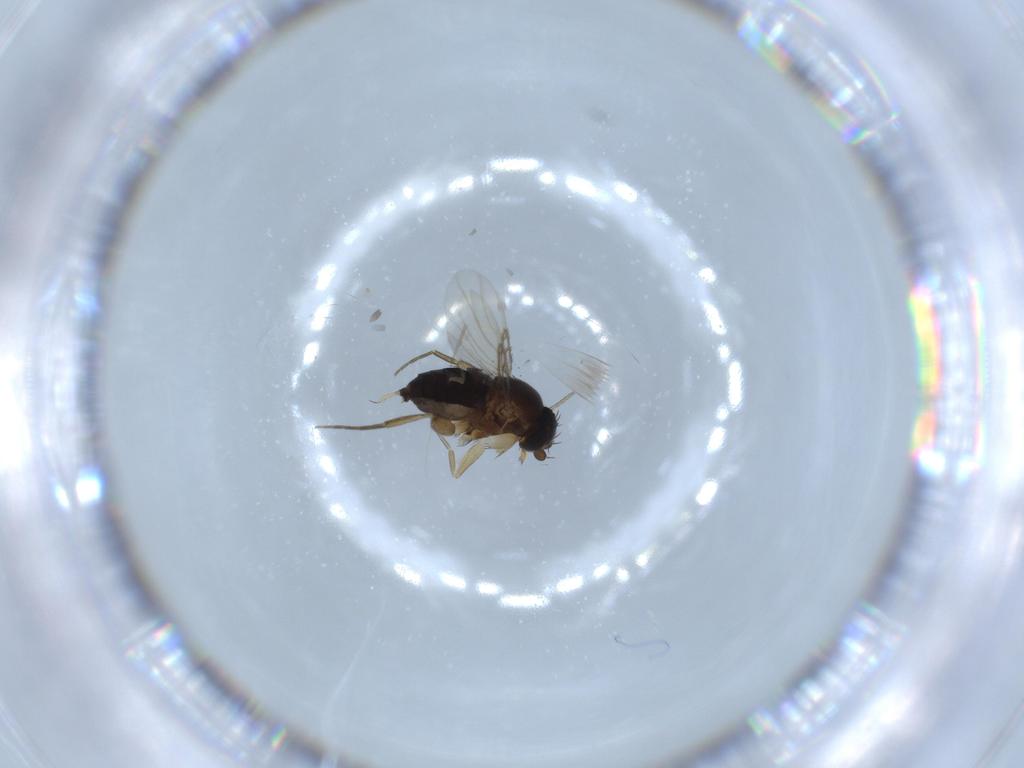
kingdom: Animalia
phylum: Arthropoda
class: Insecta
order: Diptera
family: Phoridae
